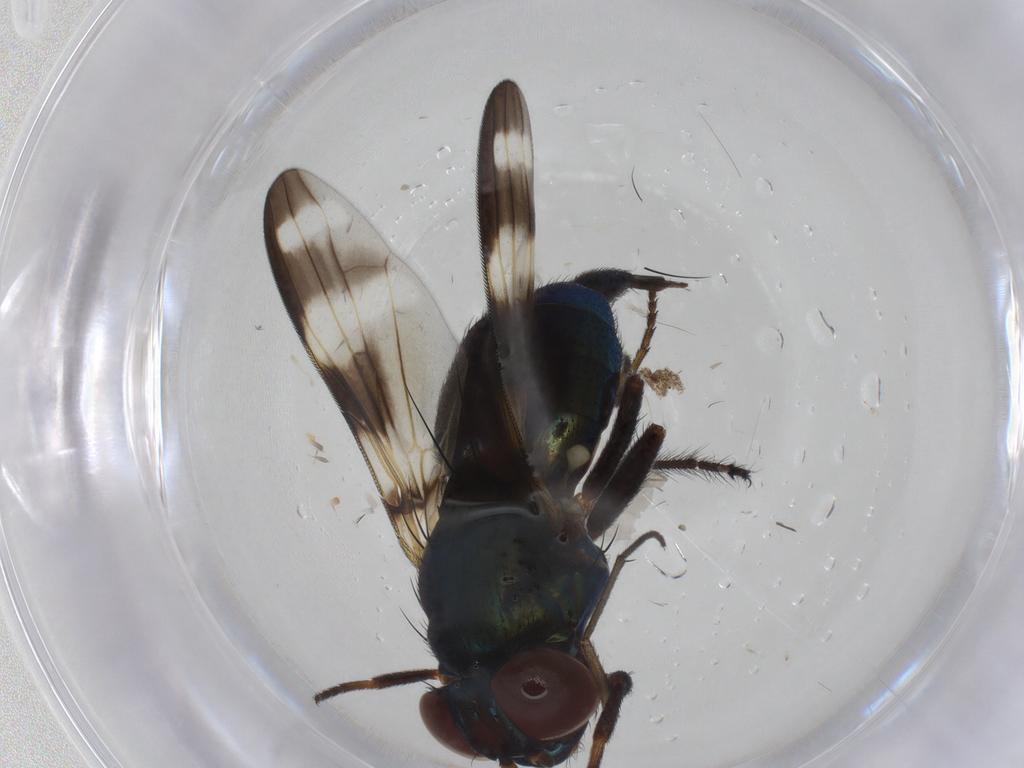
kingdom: Animalia
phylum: Arthropoda
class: Insecta
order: Diptera
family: Ulidiidae
